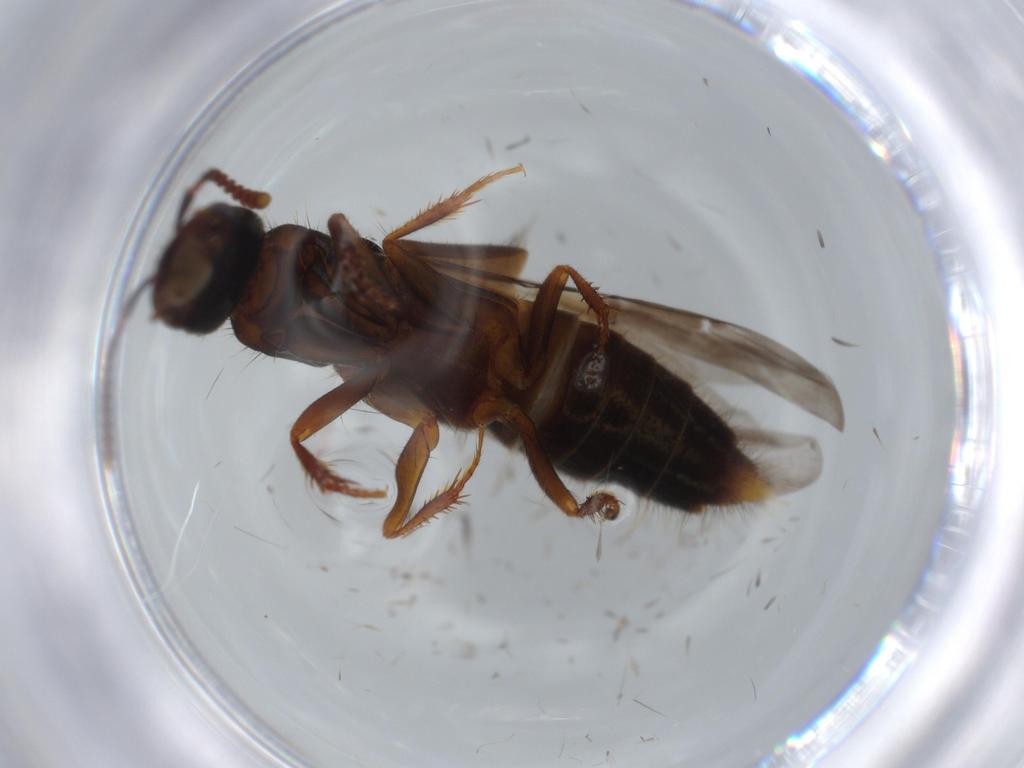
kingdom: Animalia
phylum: Arthropoda
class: Insecta
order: Coleoptera
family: Staphylinidae
